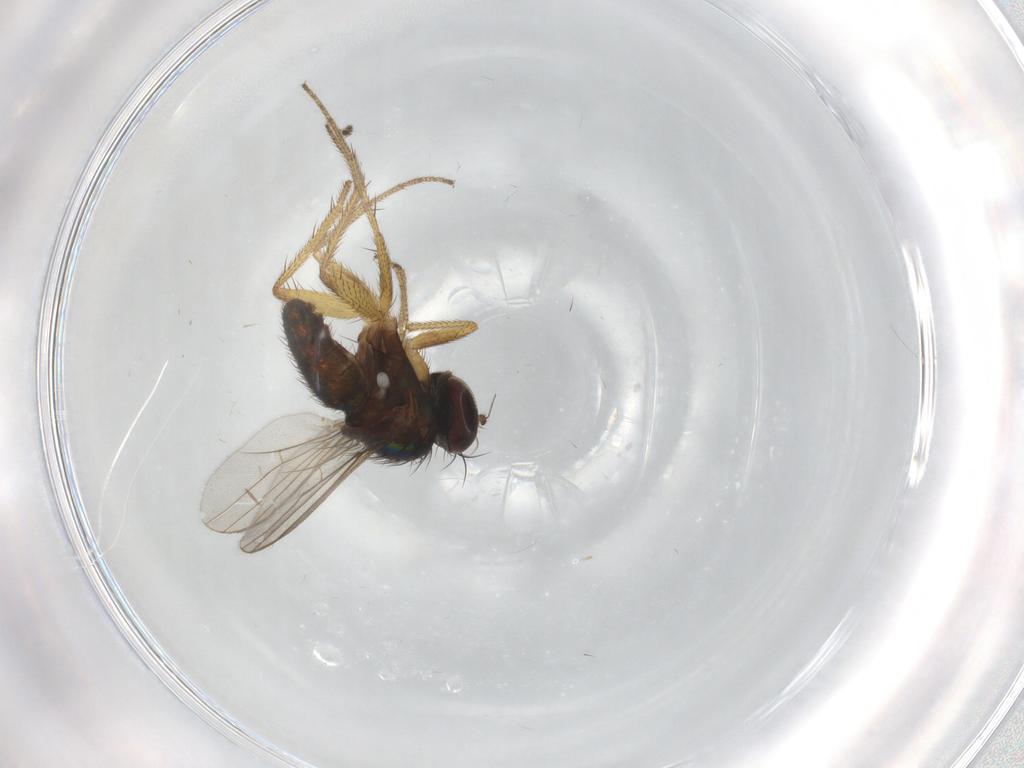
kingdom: Animalia
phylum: Arthropoda
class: Insecta
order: Diptera
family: Dolichopodidae
